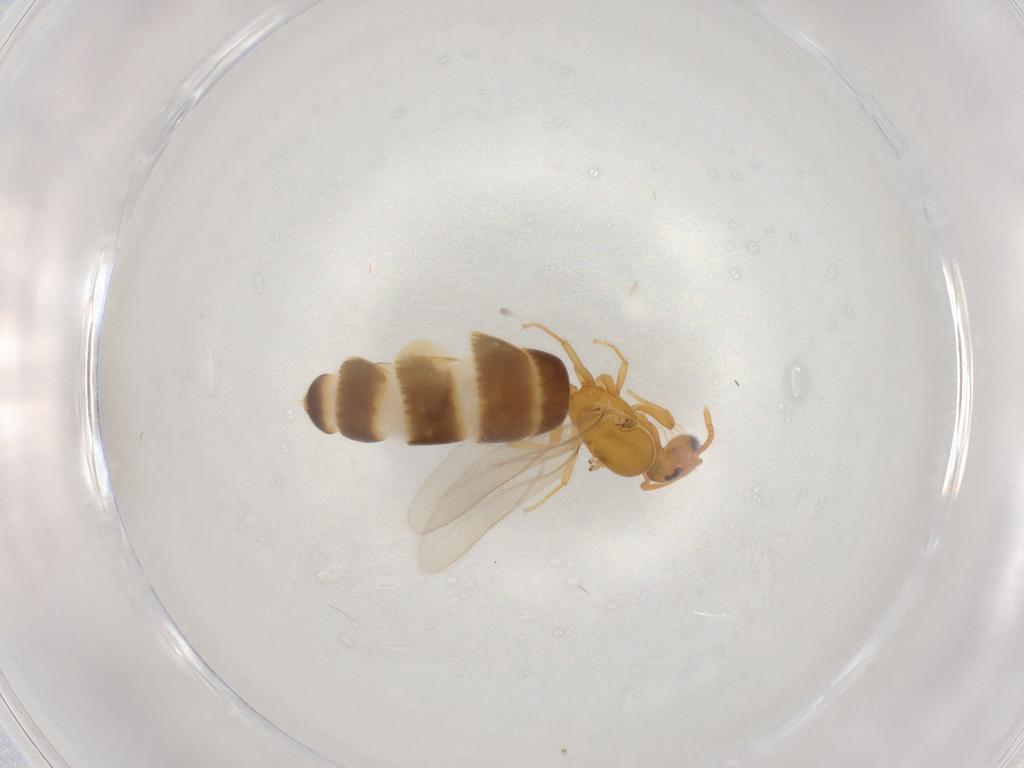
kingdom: Animalia
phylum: Arthropoda
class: Insecta
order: Hymenoptera
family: Formicidae
